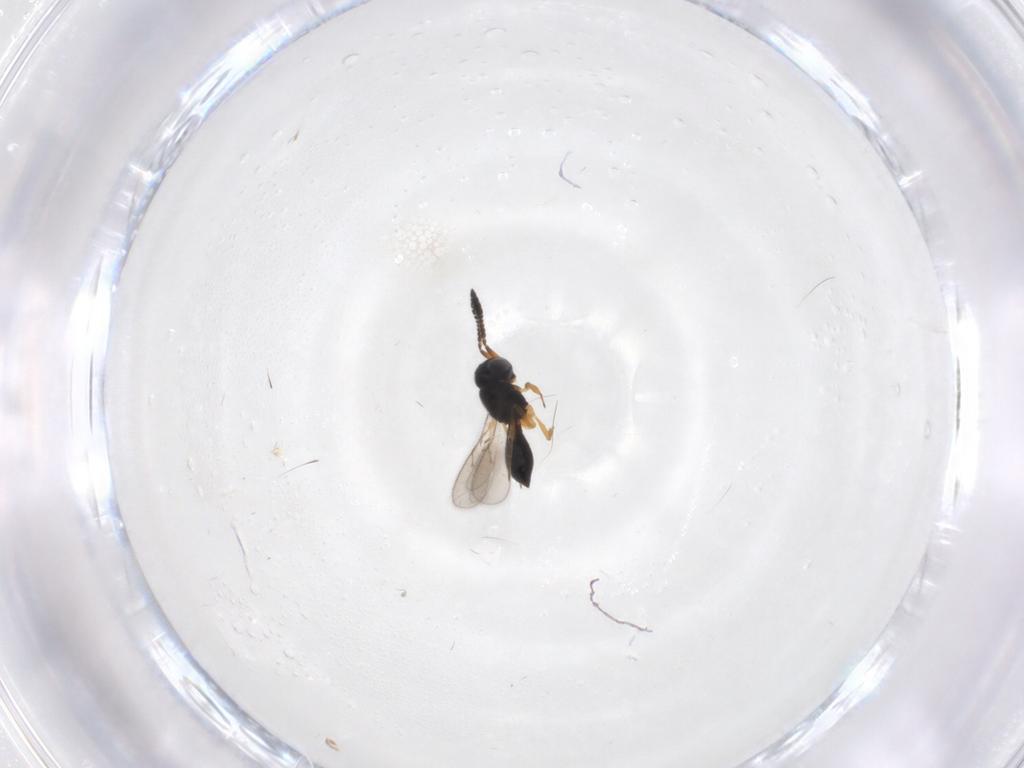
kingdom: Animalia
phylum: Arthropoda
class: Insecta
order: Hymenoptera
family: Scelionidae
